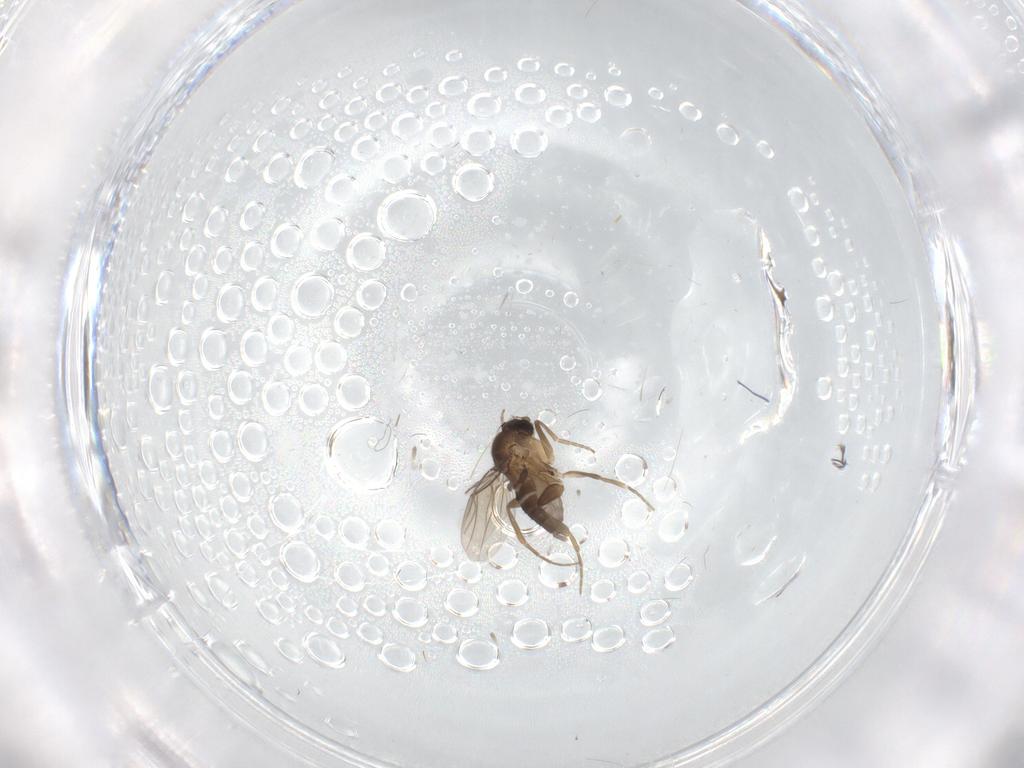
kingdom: Animalia
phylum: Arthropoda
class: Insecta
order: Diptera
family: Phoridae
